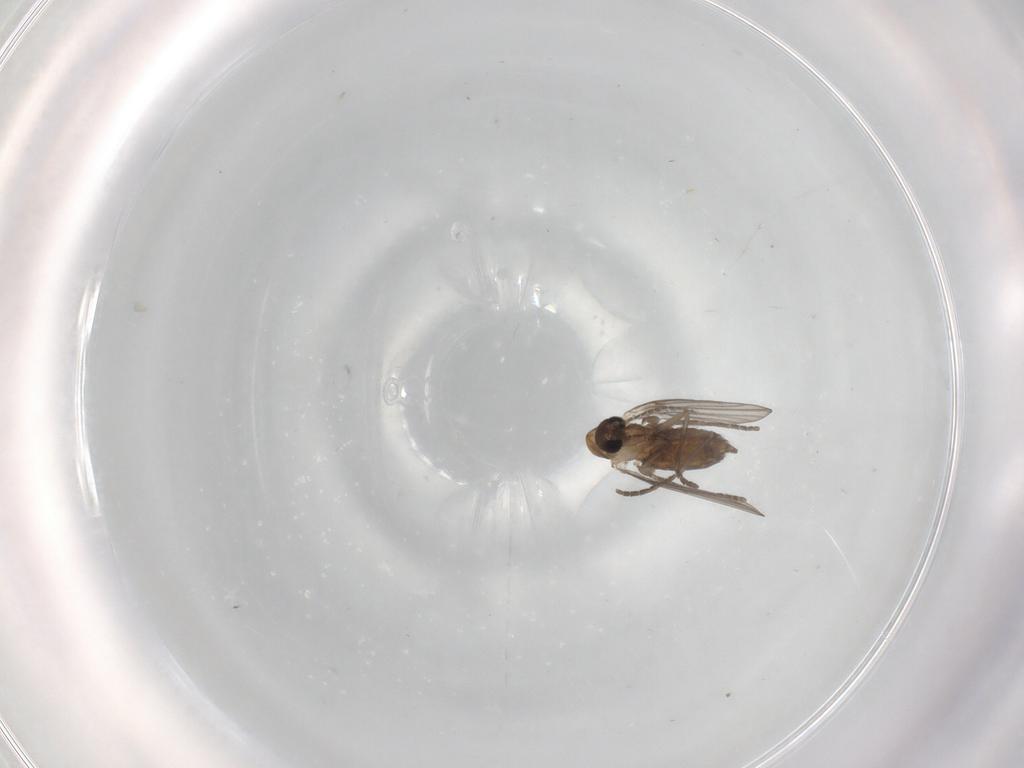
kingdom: Animalia
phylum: Arthropoda
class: Insecta
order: Diptera
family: Psychodidae
